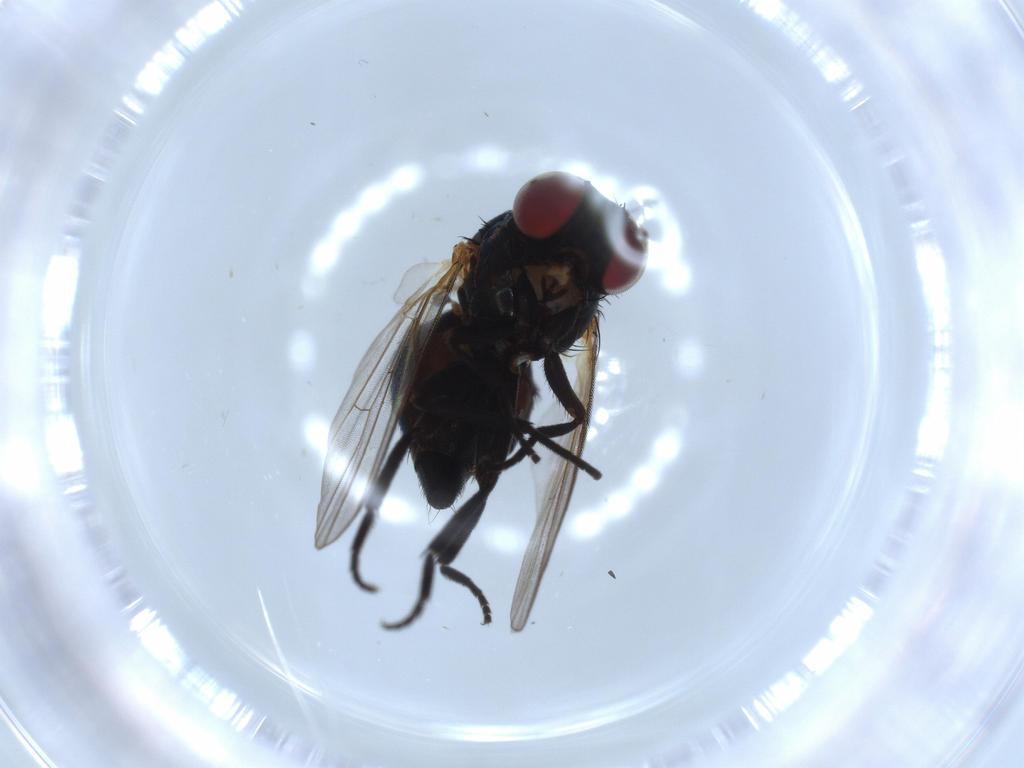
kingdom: Animalia
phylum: Arthropoda
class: Insecta
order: Diptera
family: Agromyzidae
